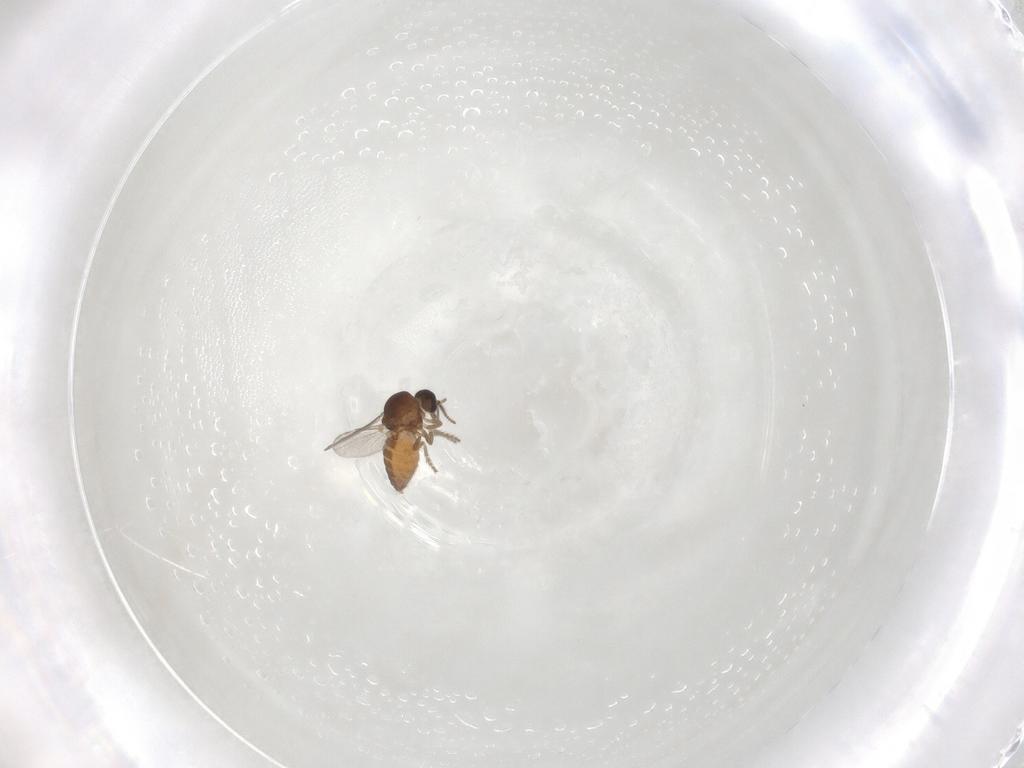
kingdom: Animalia
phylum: Arthropoda
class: Insecta
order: Diptera
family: Ceratopogonidae
